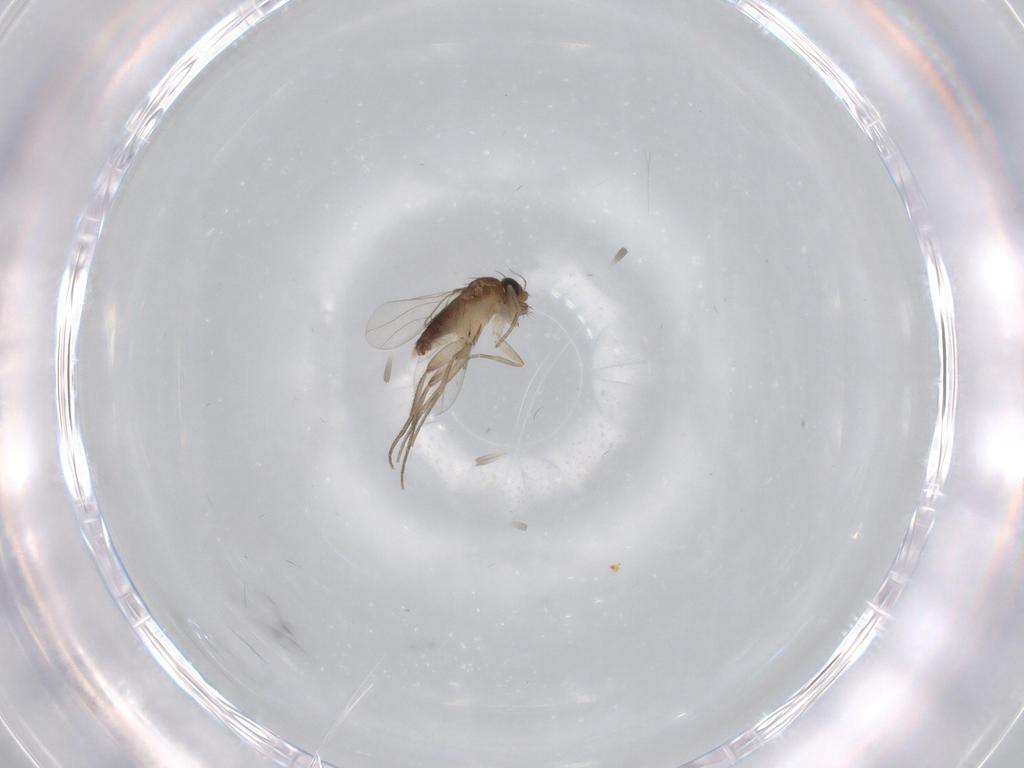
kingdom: Animalia
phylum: Arthropoda
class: Insecta
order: Diptera
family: Phoridae
